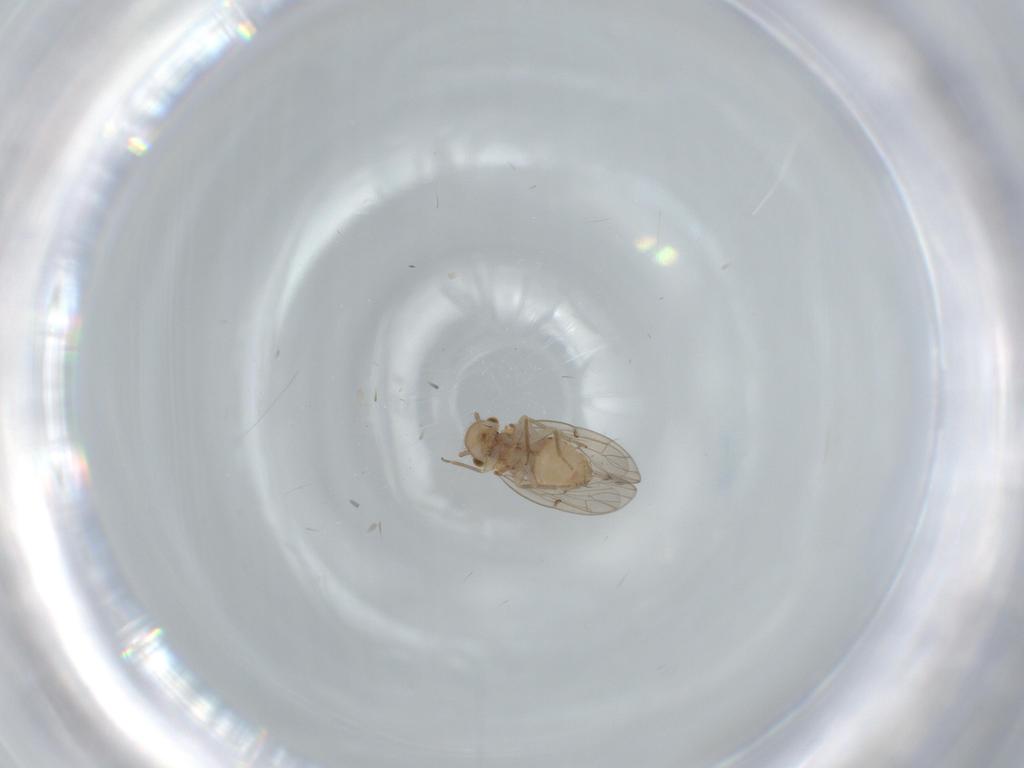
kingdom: Animalia
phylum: Arthropoda
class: Insecta
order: Psocodea
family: Ectopsocidae
